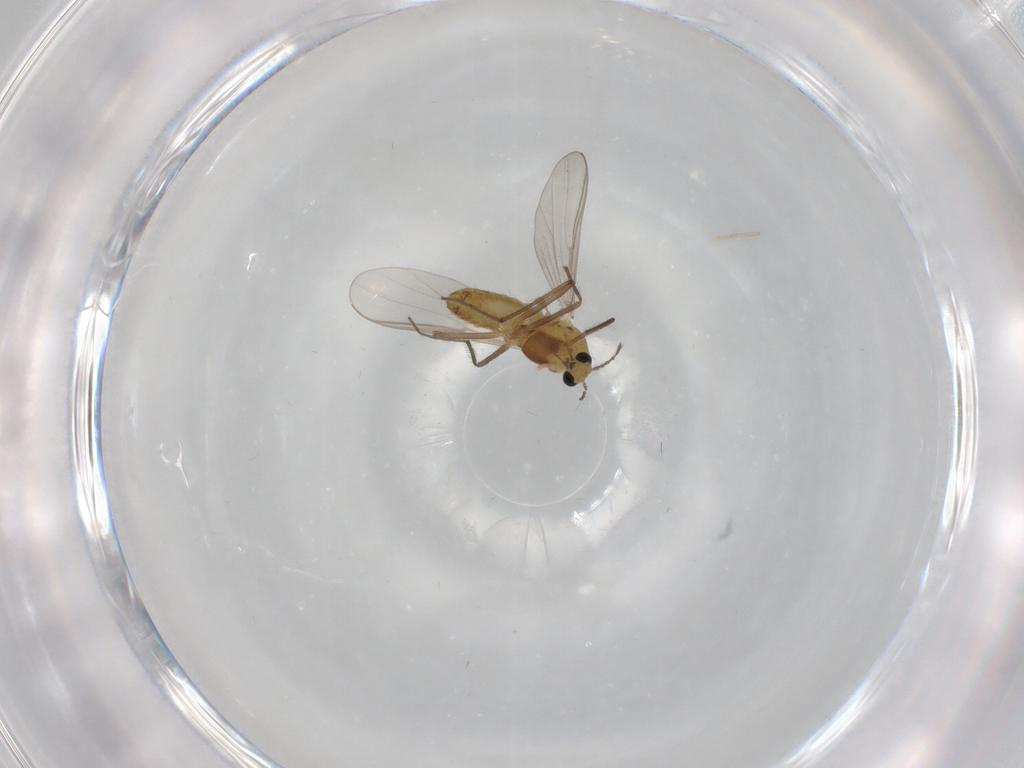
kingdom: Animalia
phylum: Arthropoda
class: Insecta
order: Diptera
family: Chironomidae
